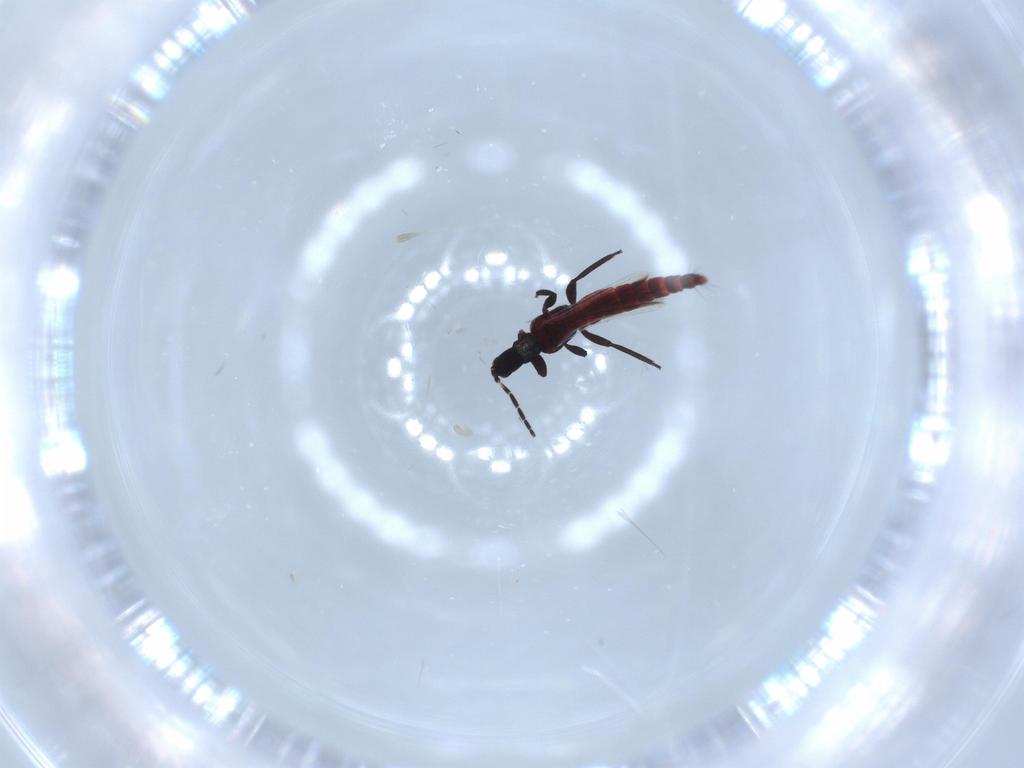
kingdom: Animalia
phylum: Arthropoda
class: Insecta
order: Thysanoptera
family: Aeolothripidae
